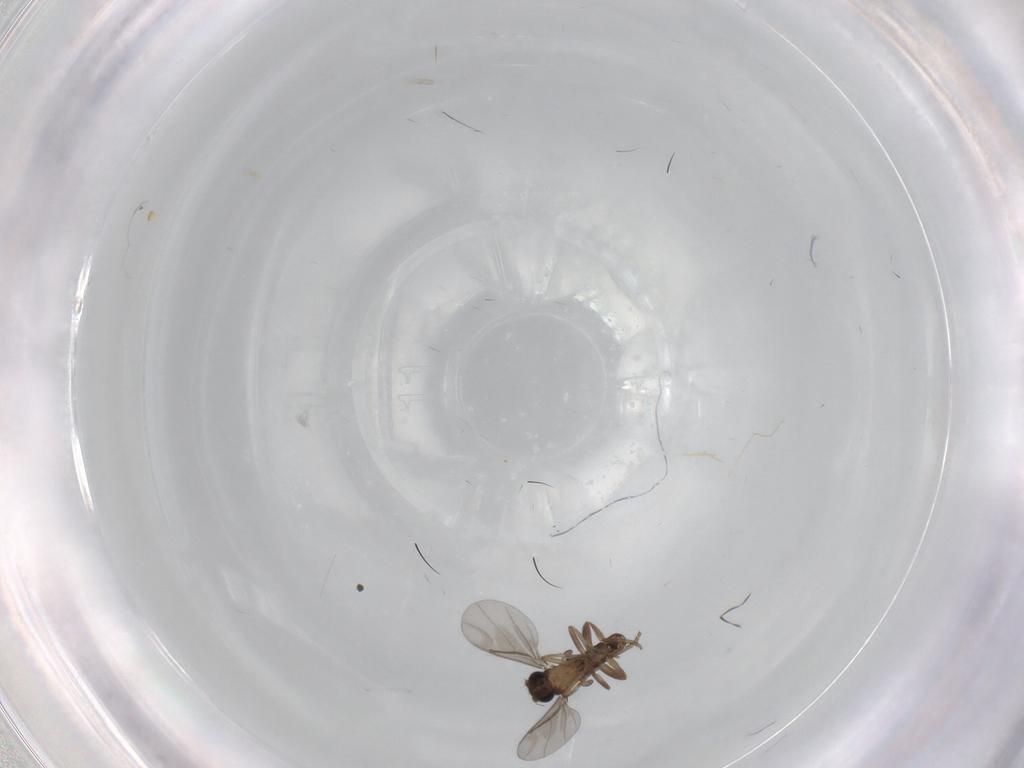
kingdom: Animalia
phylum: Arthropoda
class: Insecta
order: Diptera
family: Drosophilidae
